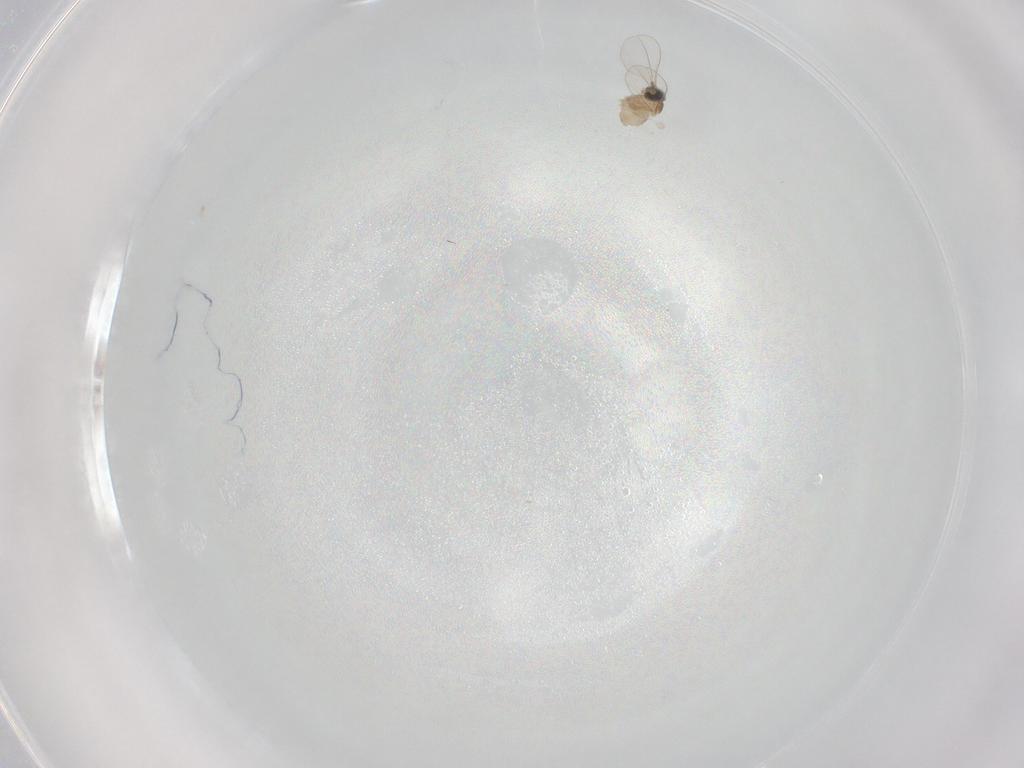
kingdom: Animalia
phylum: Arthropoda
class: Insecta
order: Diptera
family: Cecidomyiidae
